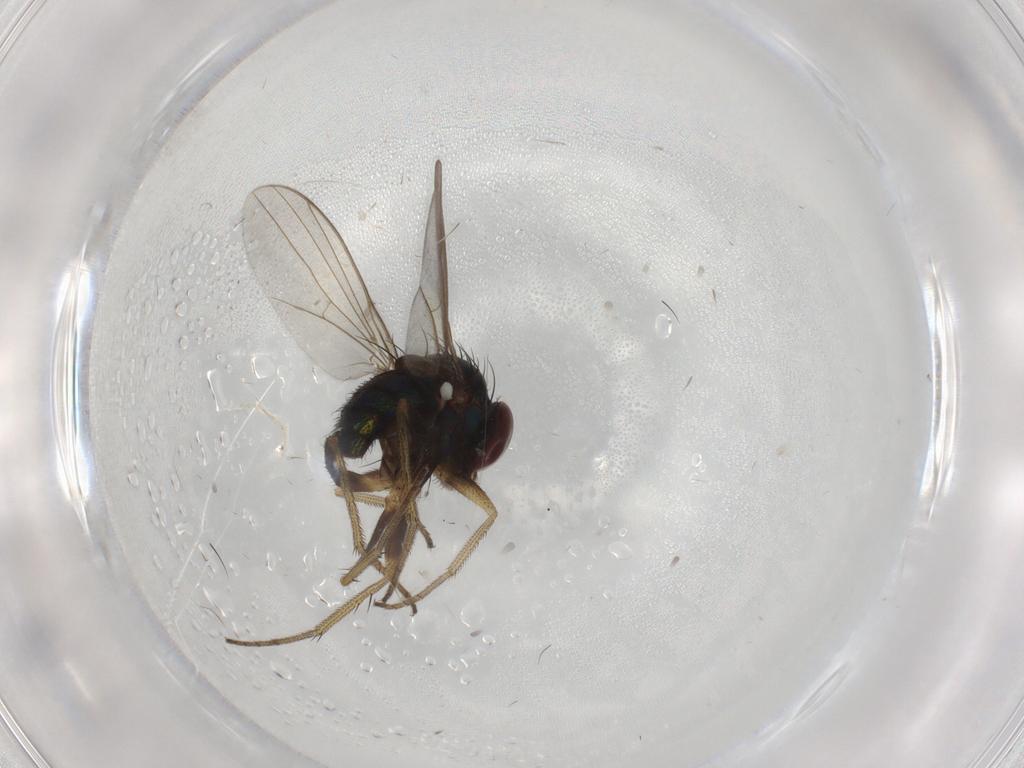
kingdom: Animalia
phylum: Arthropoda
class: Insecta
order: Diptera
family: Dolichopodidae
